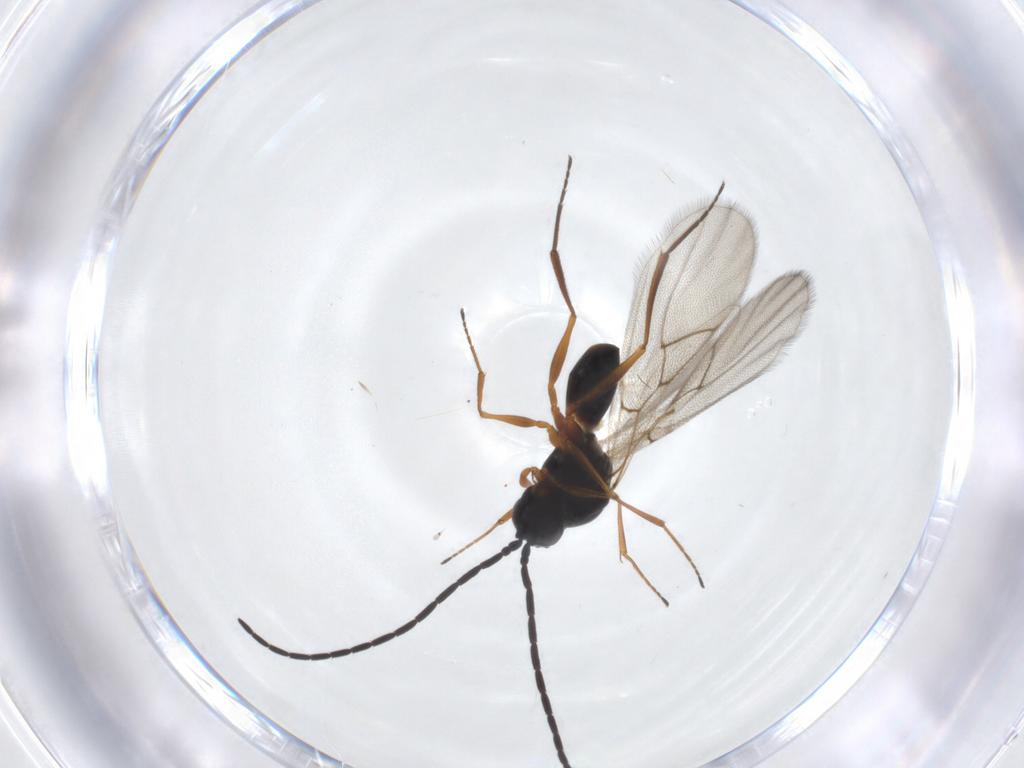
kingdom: Animalia
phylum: Arthropoda
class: Insecta
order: Hymenoptera
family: Figitidae
